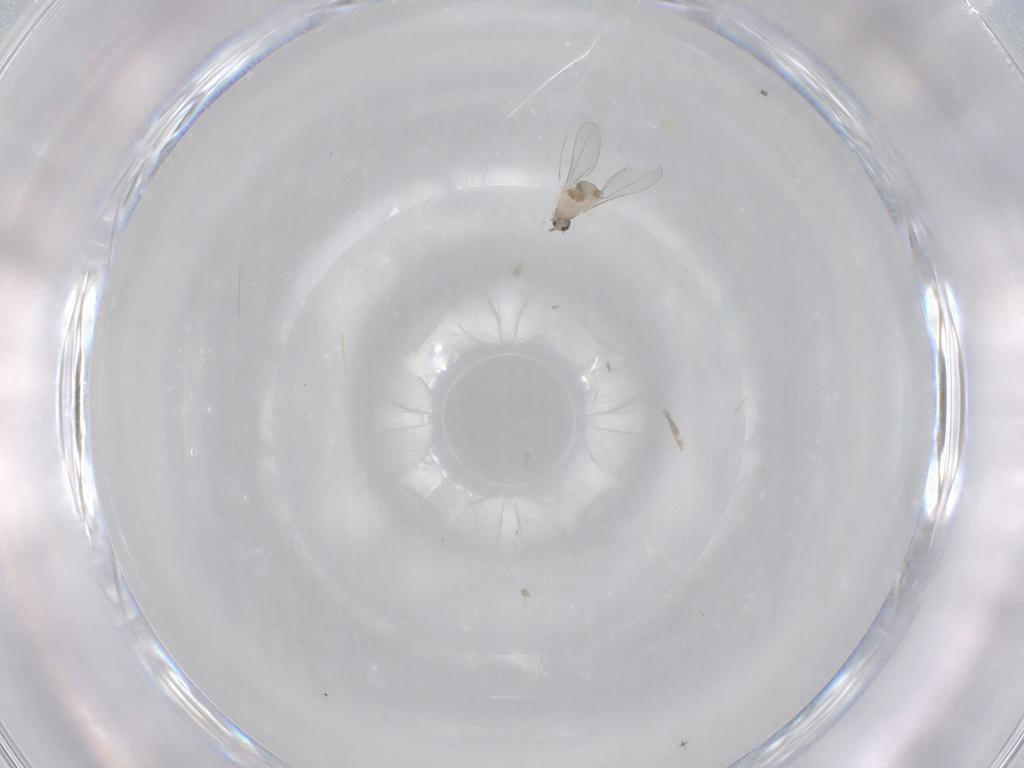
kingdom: Animalia
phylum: Arthropoda
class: Insecta
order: Diptera
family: Cecidomyiidae
